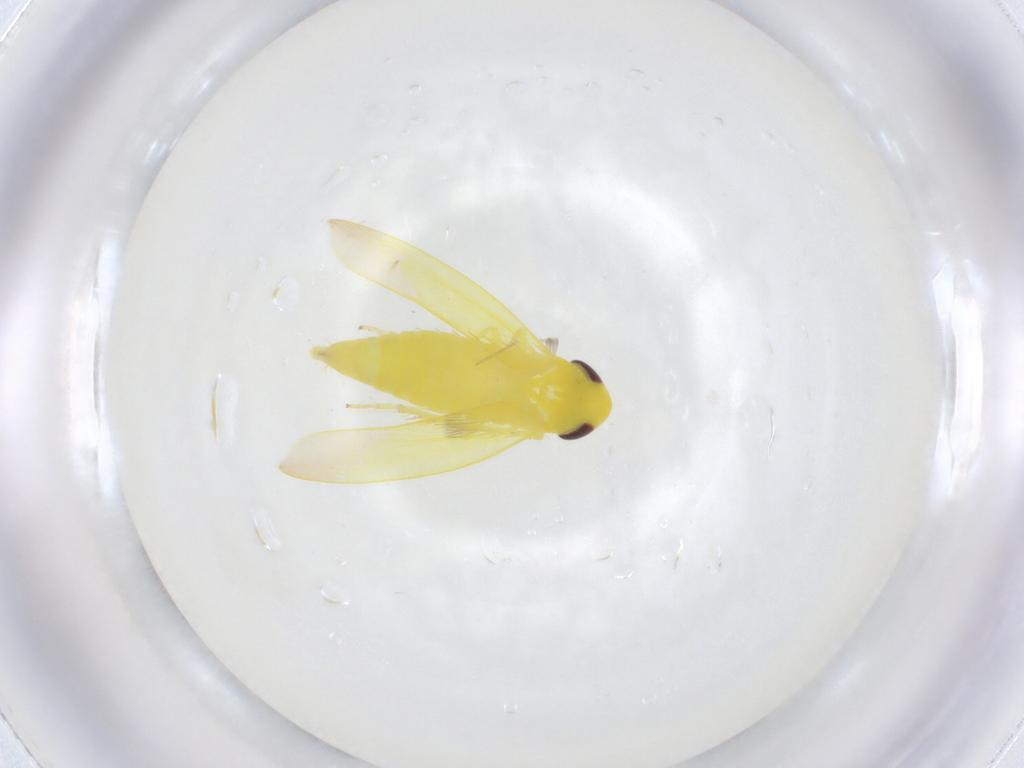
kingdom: Animalia
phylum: Arthropoda
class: Insecta
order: Hemiptera
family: Cicadellidae
